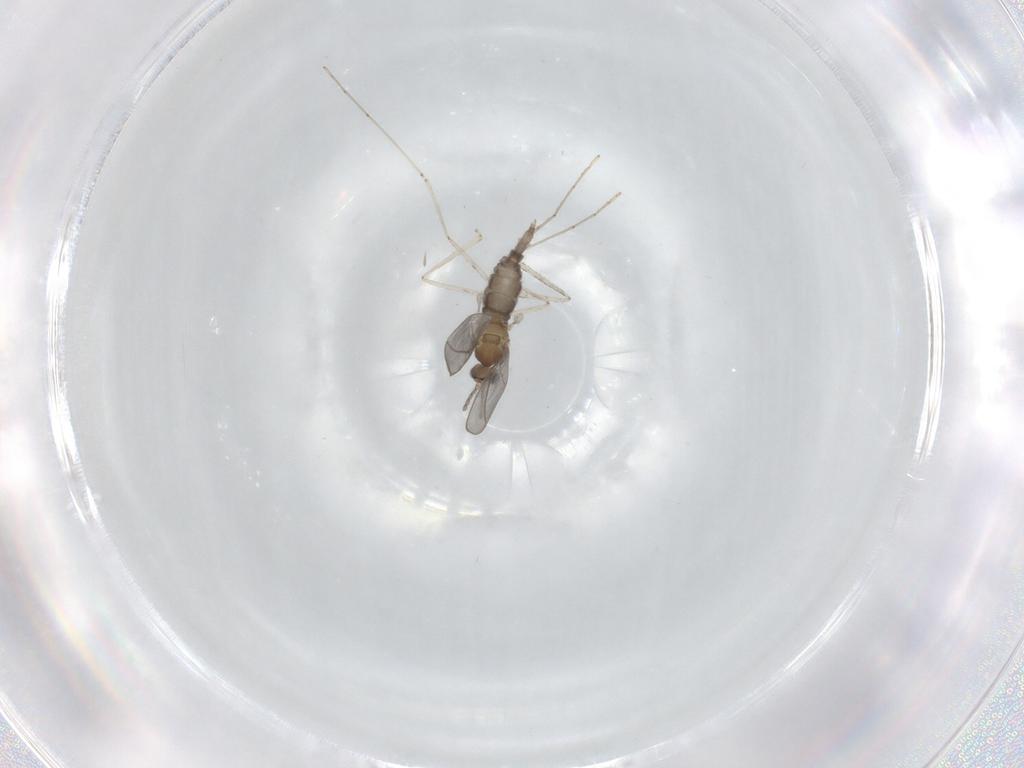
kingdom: Animalia
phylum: Arthropoda
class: Insecta
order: Diptera
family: Cecidomyiidae
